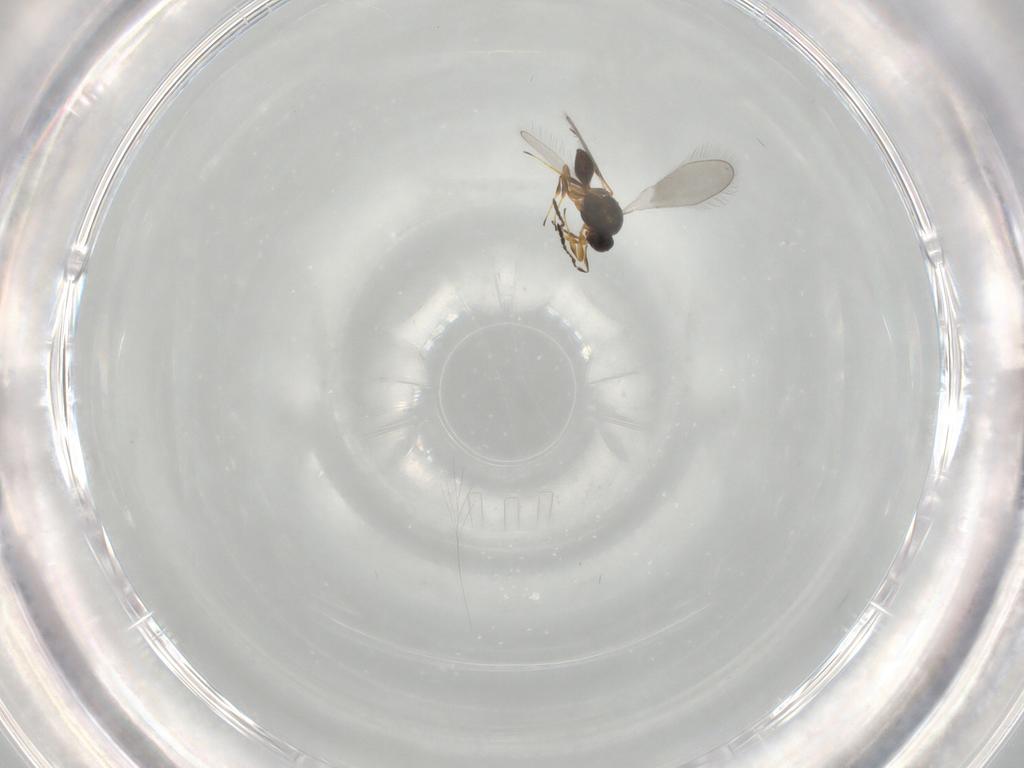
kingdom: Animalia
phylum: Arthropoda
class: Insecta
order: Hymenoptera
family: Platygastridae
